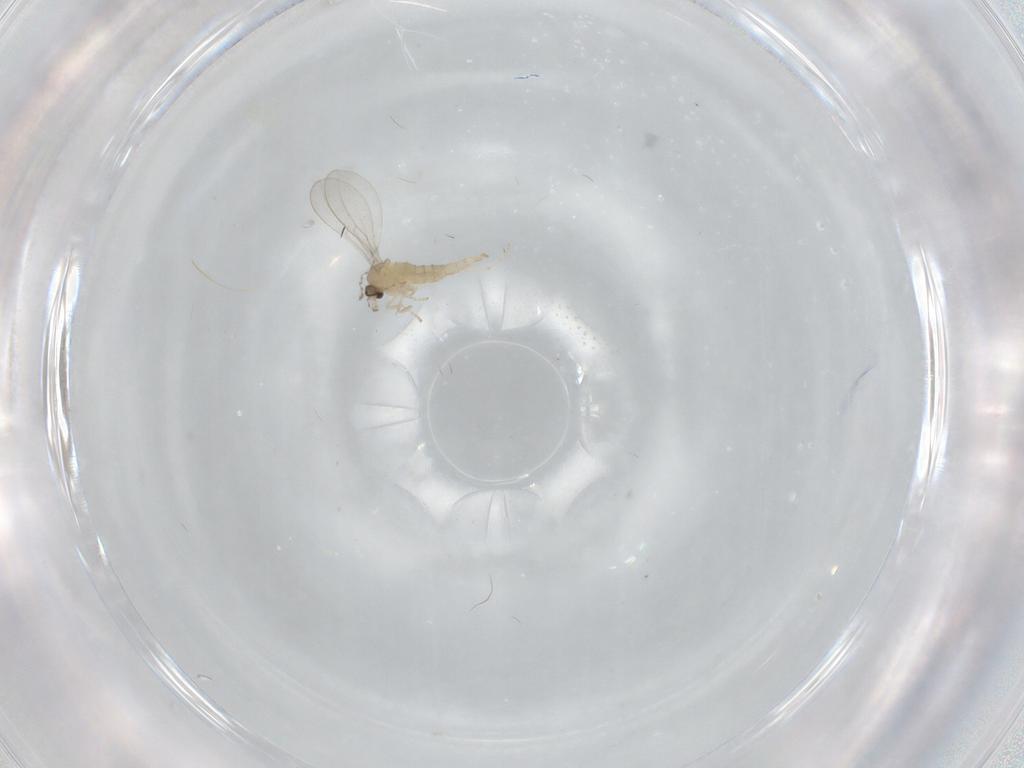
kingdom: Animalia
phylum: Arthropoda
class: Insecta
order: Diptera
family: Cecidomyiidae
